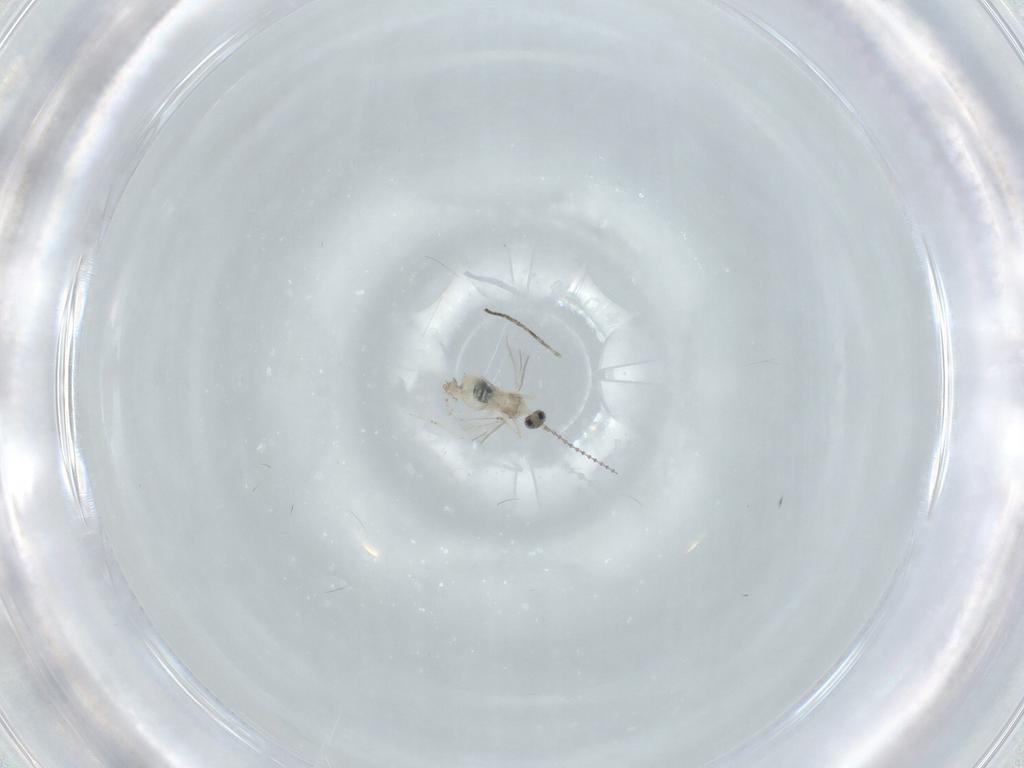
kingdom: Animalia
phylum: Arthropoda
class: Insecta
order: Diptera
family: Cecidomyiidae
